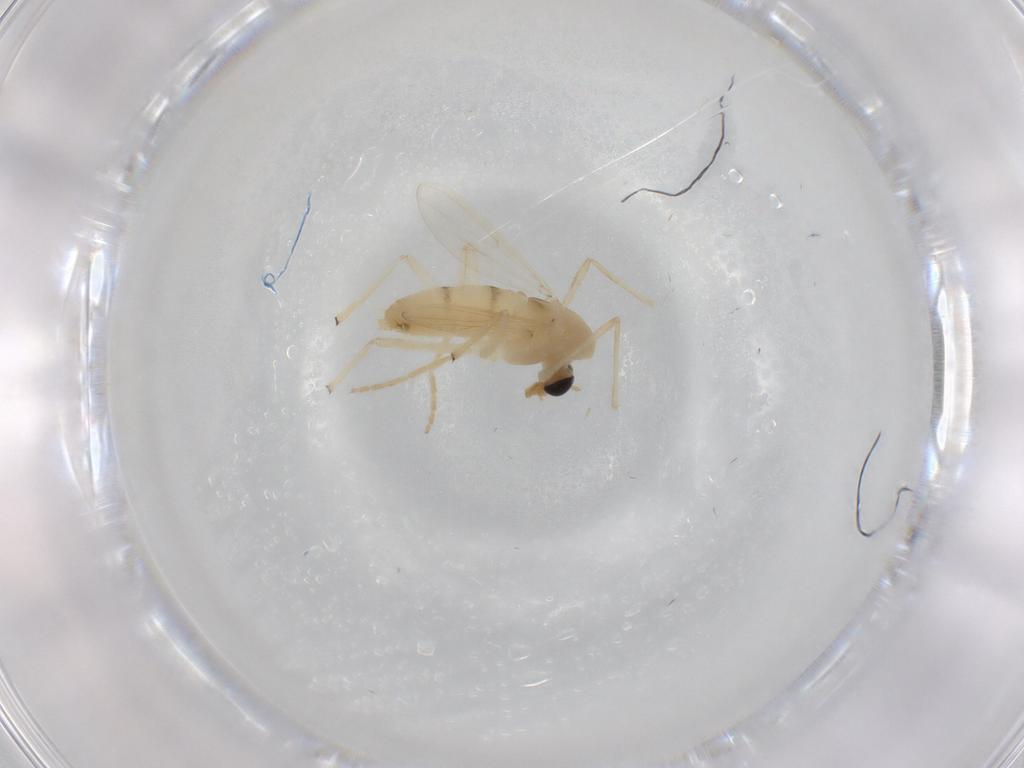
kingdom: Animalia
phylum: Arthropoda
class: Insecta
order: Diptera
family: Chironomidae
